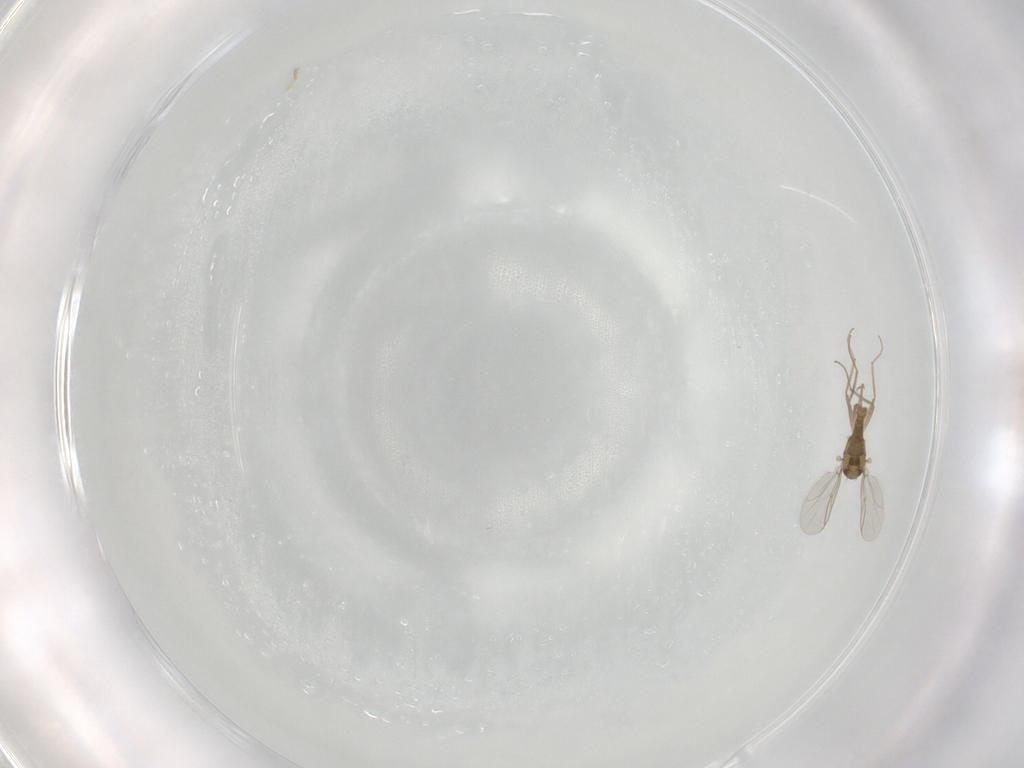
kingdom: Animalia
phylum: Arthropoda
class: Insecta
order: Diptera
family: Chironomidae
